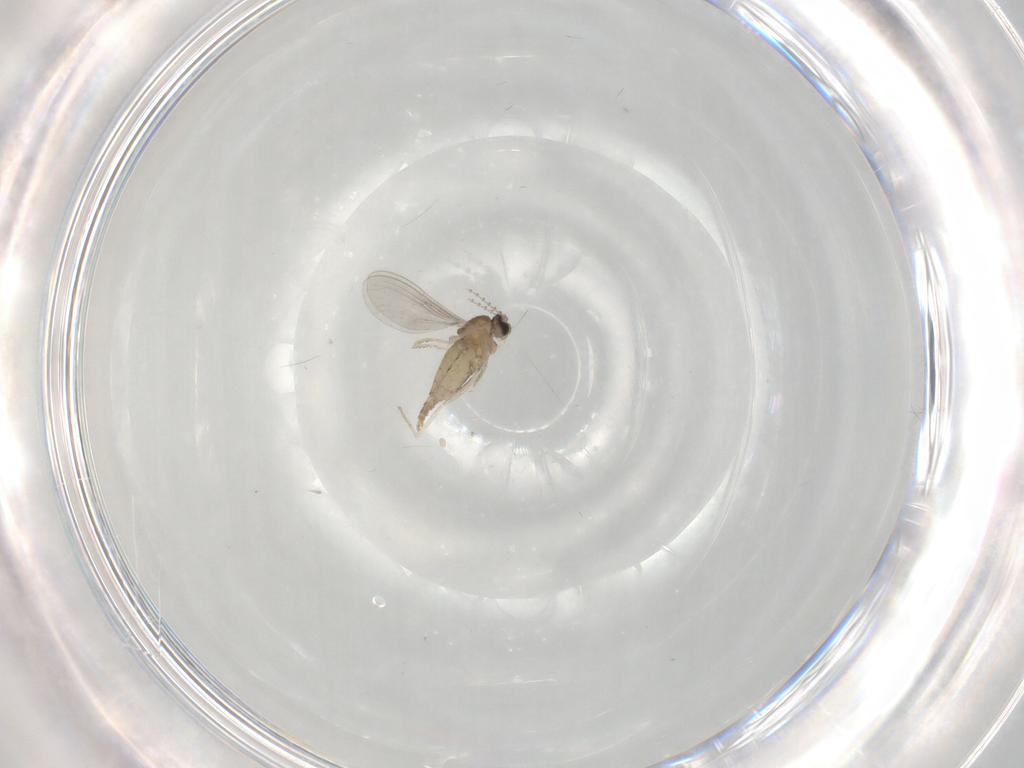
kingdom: Animalia
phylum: Arthropoda
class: Insecta
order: Diptera
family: Cecidomyiidae
